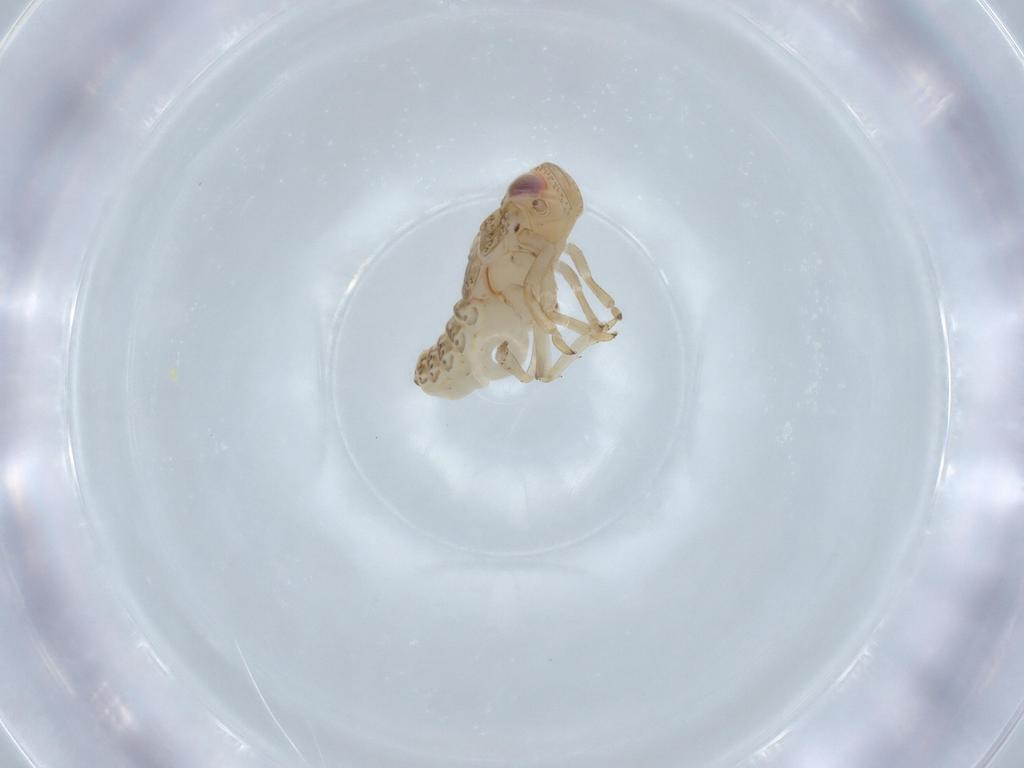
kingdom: Animalia
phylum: Arthropoda
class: Insecta
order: Hemiptera
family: Issidae
